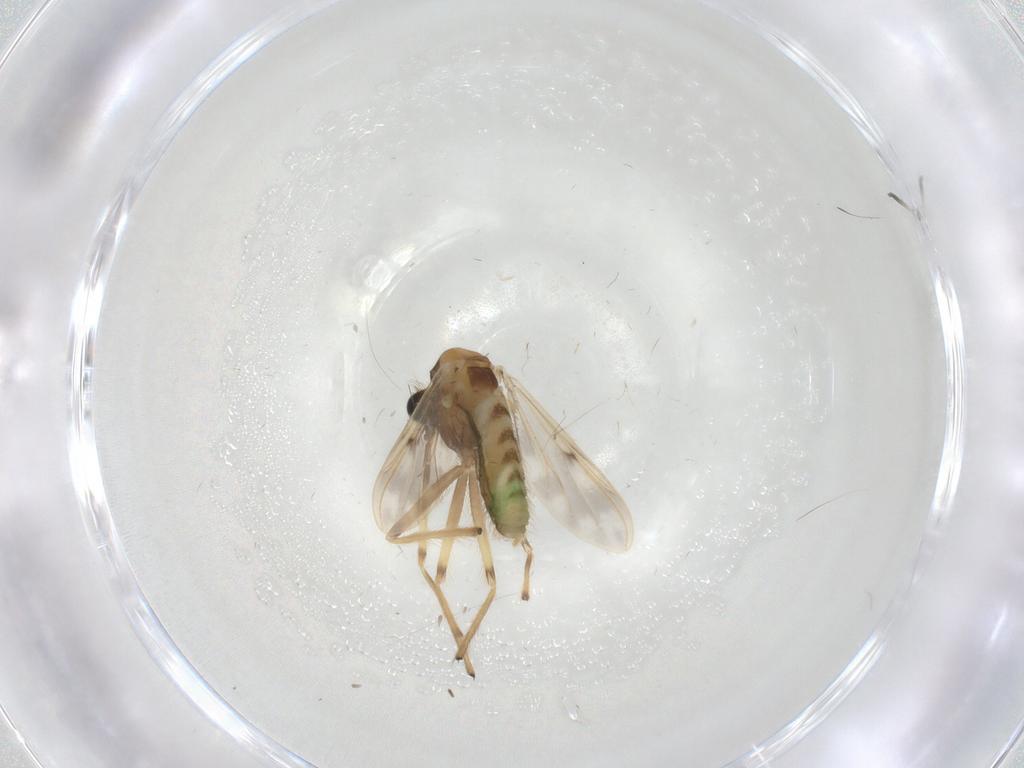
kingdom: Animalia
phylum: Arthropoda
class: Insecta
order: Diptera
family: Chironomidae
